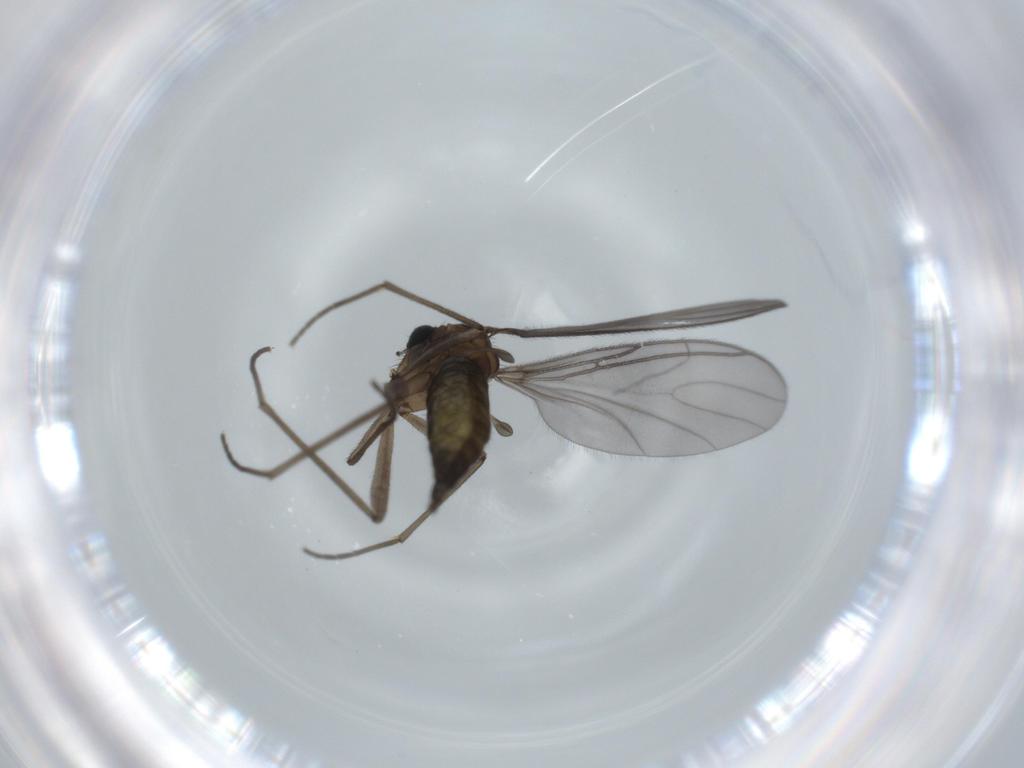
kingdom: Animalia
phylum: Arthropoda
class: Insecta
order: Diptera
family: Sciaridae
